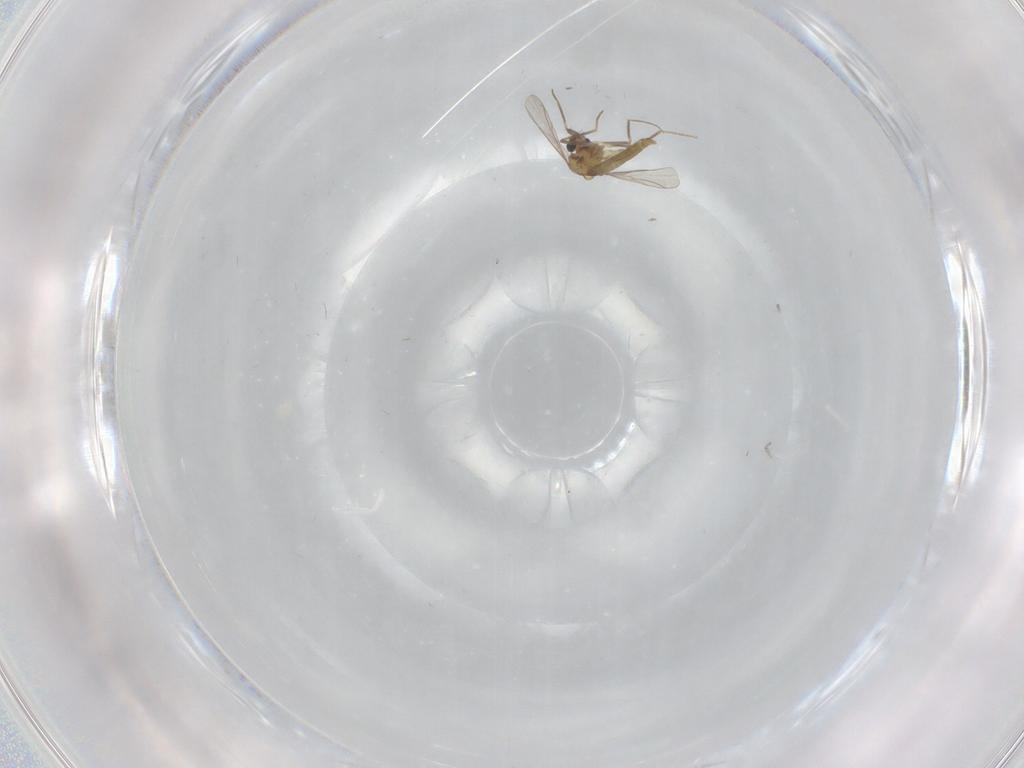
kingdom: Animalia
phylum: Arthropoda
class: Insecta
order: Diptera
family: Chironomidae
